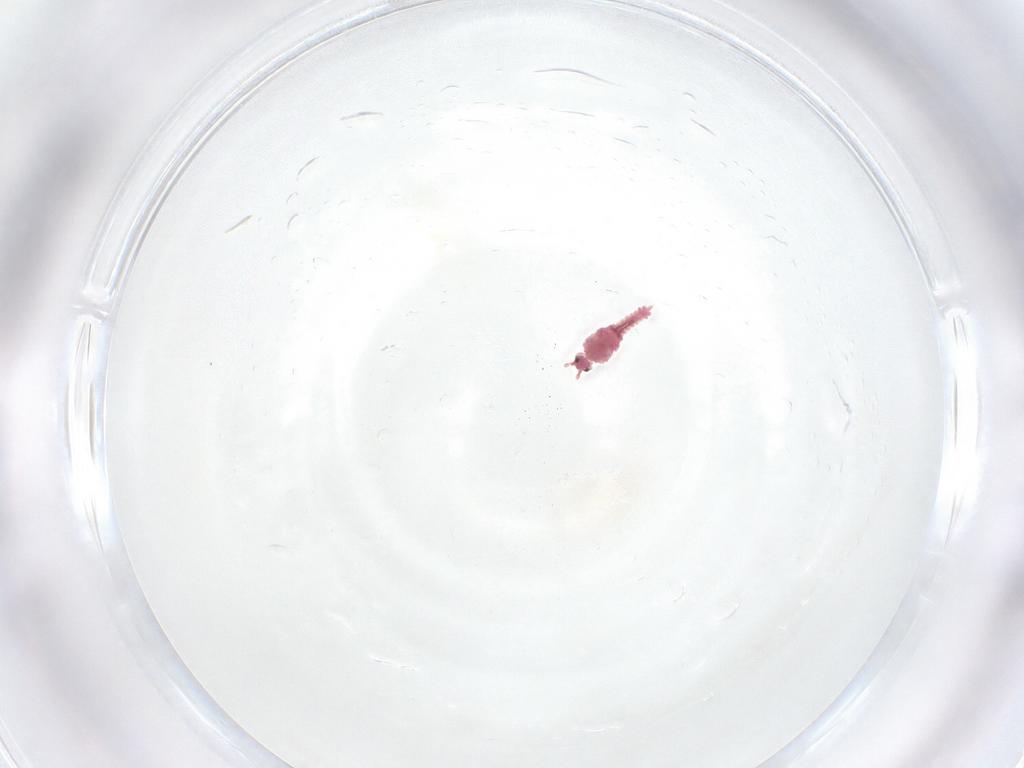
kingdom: Animalia
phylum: Arthropoda
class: Insecta
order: Diptera
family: Chironomidae
